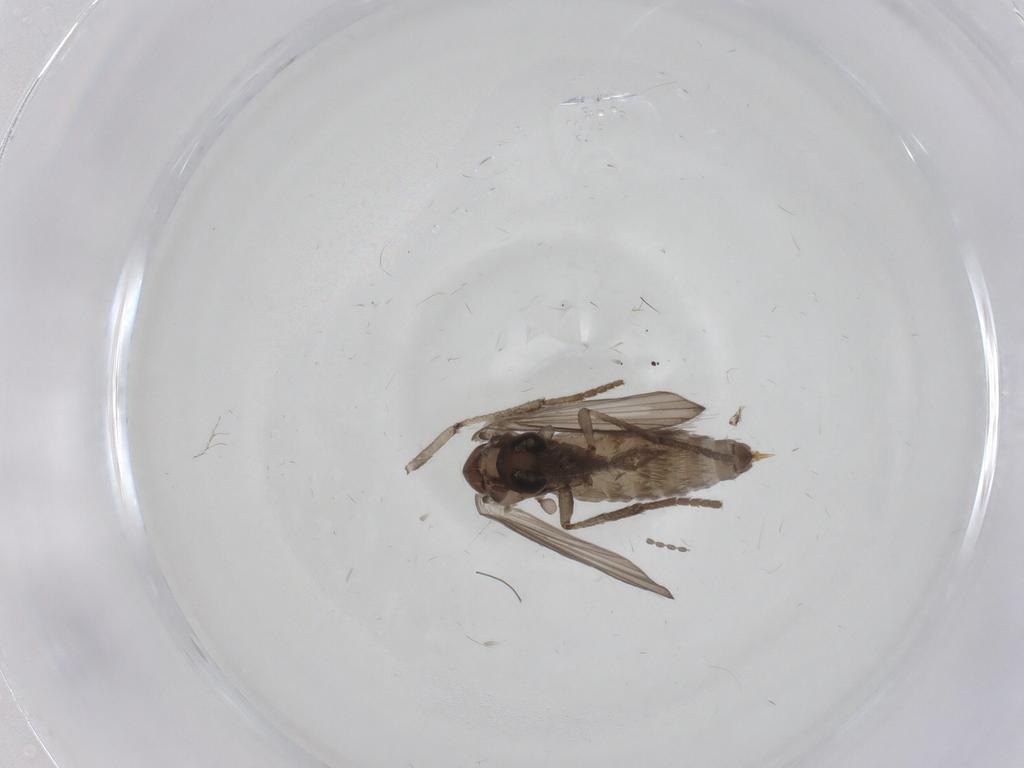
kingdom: Animalia
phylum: Arthropoda
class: Insecta
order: Diptera
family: Psychodidae
